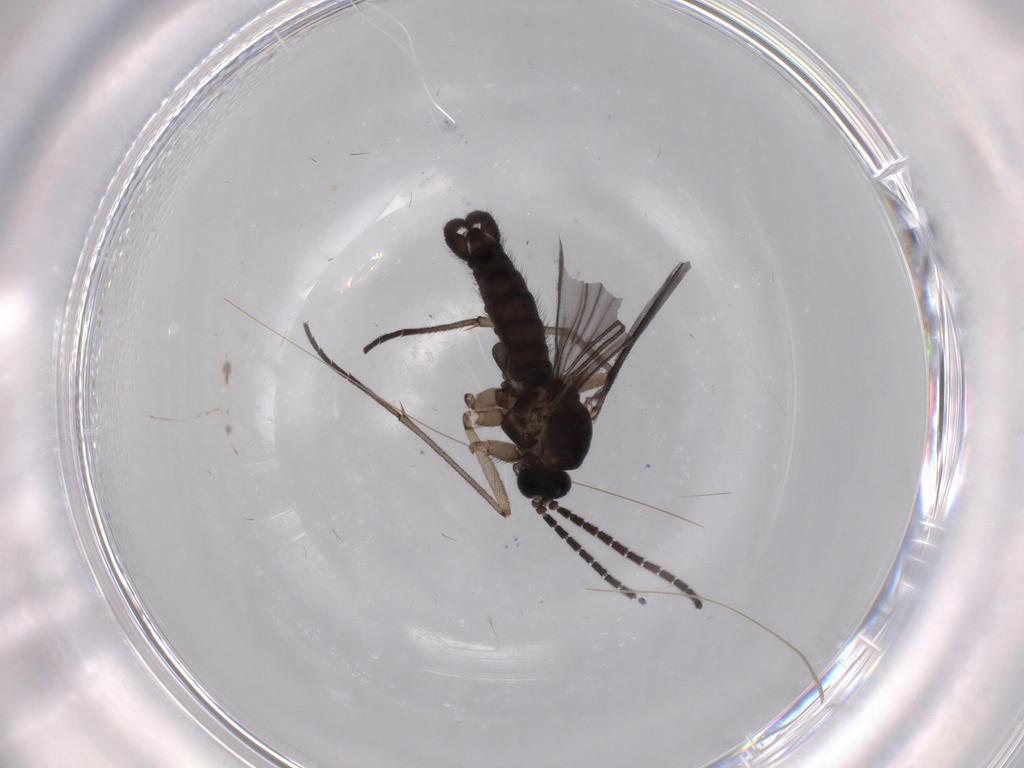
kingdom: Animalia
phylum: Arthropoda
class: Insecta
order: Diptera
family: Sciaridae
